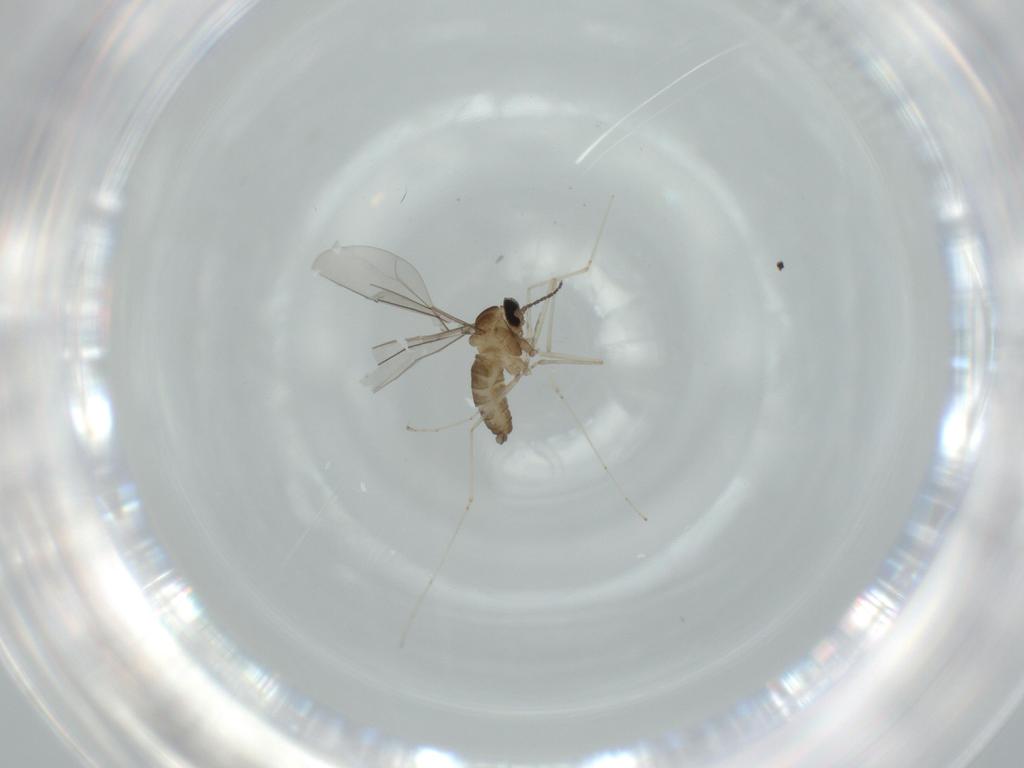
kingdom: Animalia
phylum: Arthropoda
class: Insecta
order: Diptera
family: Cecidomyiidae
